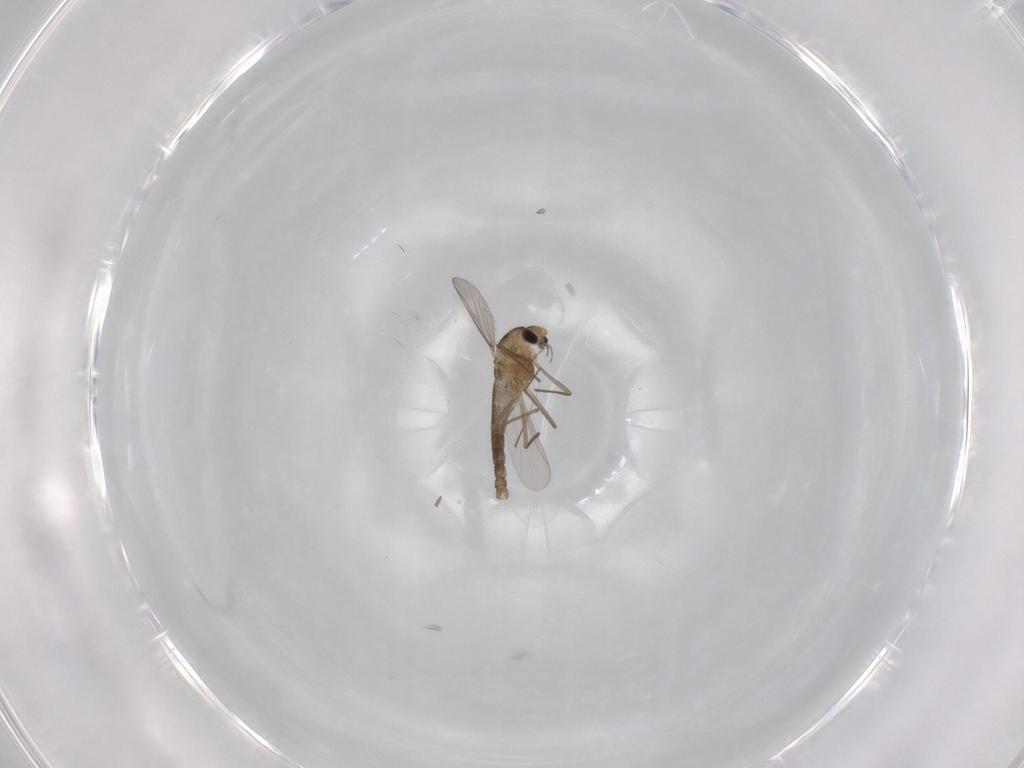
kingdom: Animalia
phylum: Arthropoda
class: Insecta
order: Diptera
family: Chironomidae
